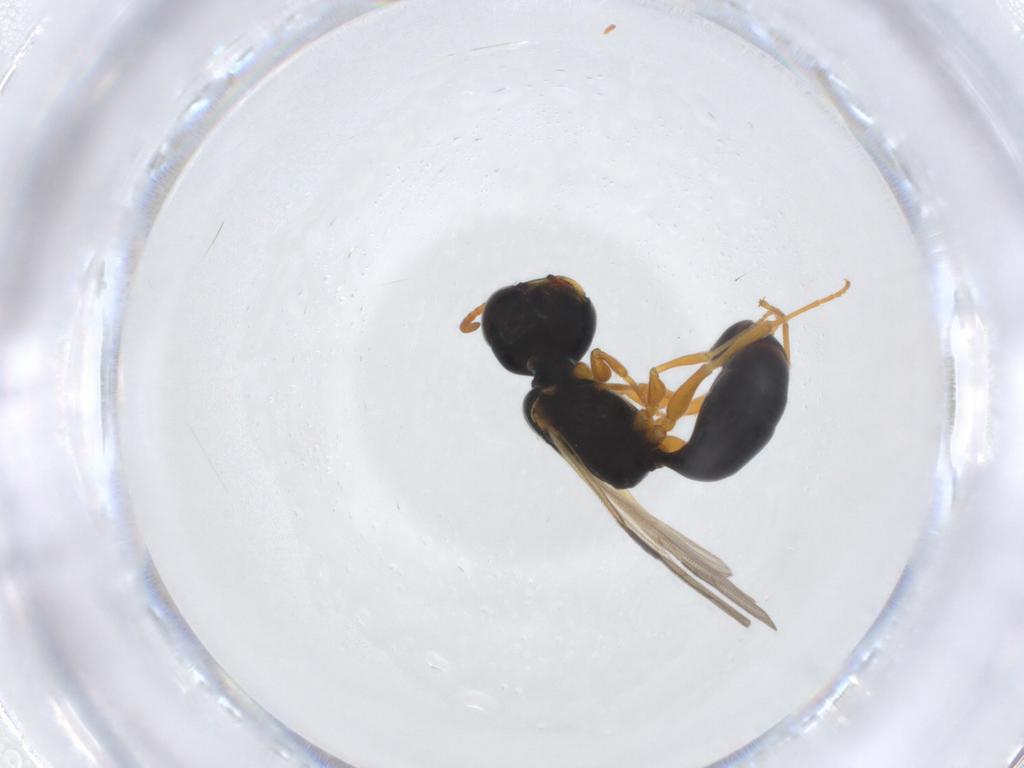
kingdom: Animalia
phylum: Arthropoda
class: Insecta
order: Hymenoptera
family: Pemphredonidae
